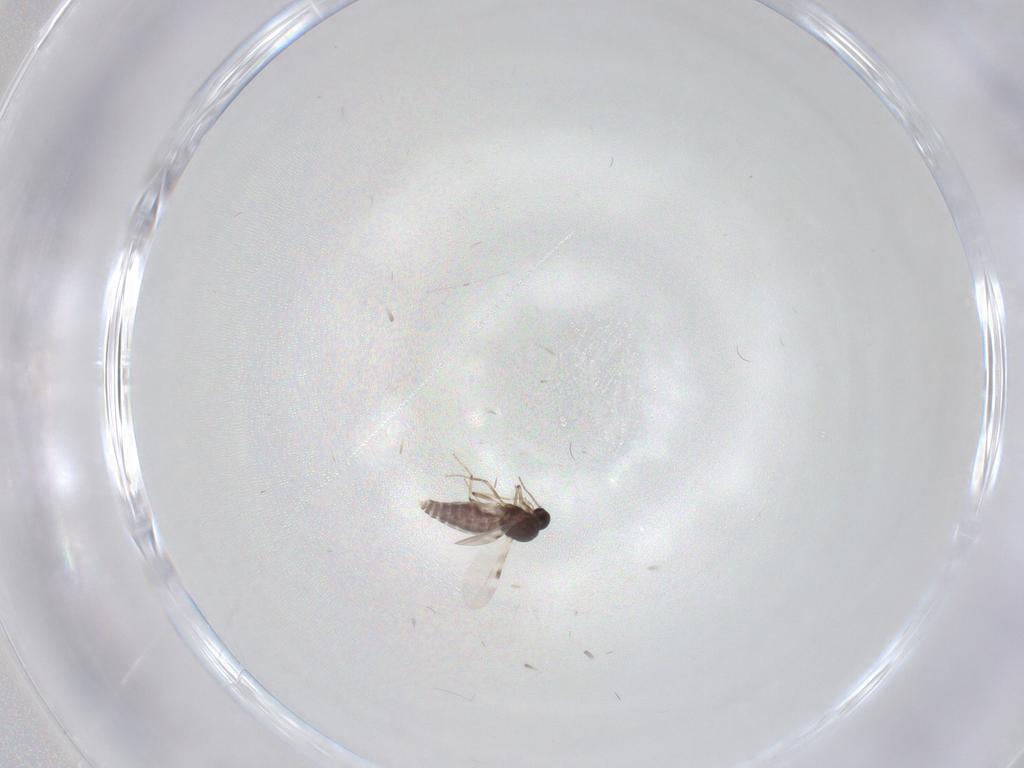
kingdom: Animalia
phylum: Arthropoda
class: Insecta
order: Diptera
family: Cecidomyiidae
